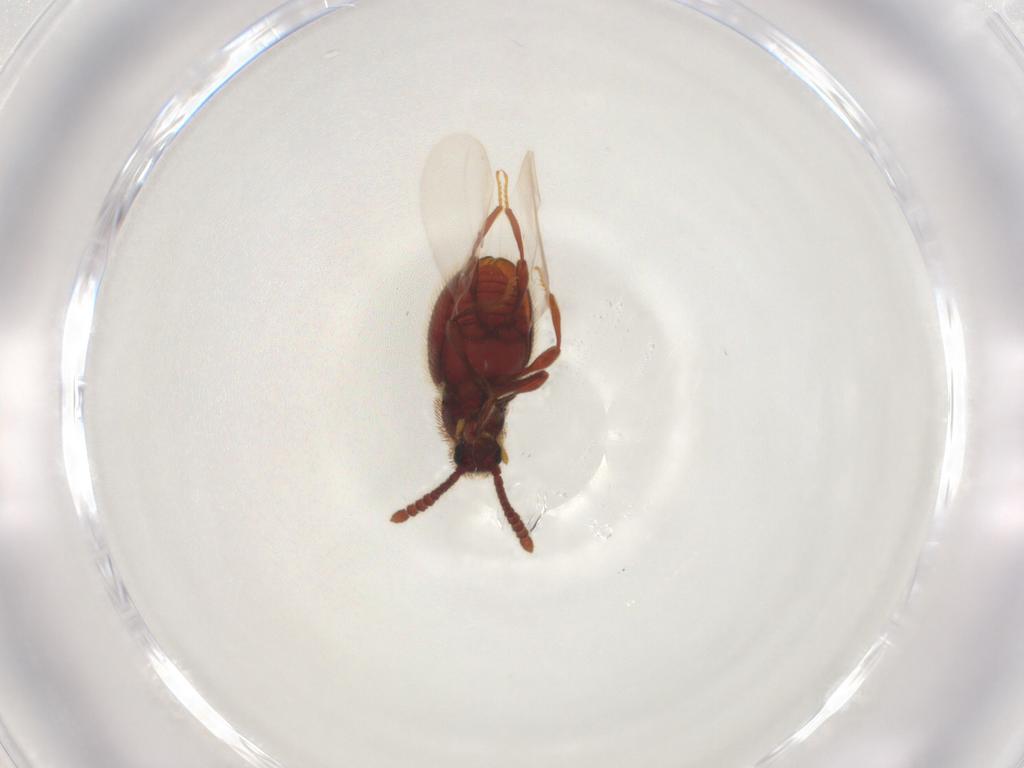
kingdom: Animalia
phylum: Arthropoda
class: Insecta
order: Coleoptera
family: Staphylinidae
